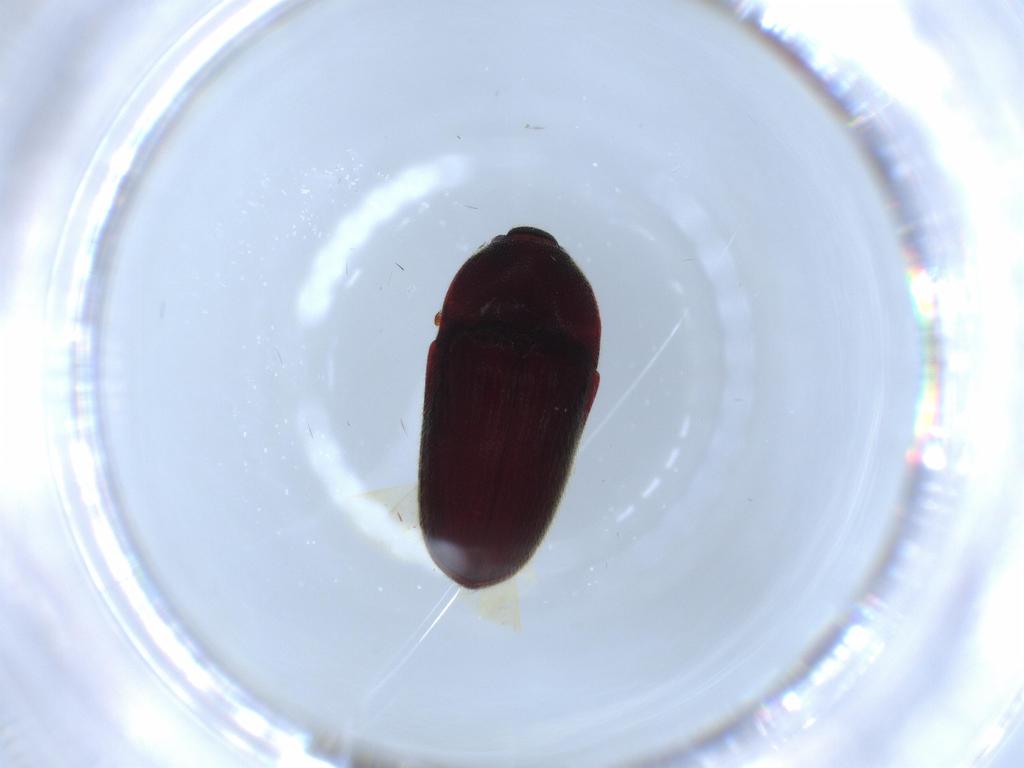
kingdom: Animalia
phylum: Arthropoda
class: Insecta
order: Coleoptera
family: Throscidae
